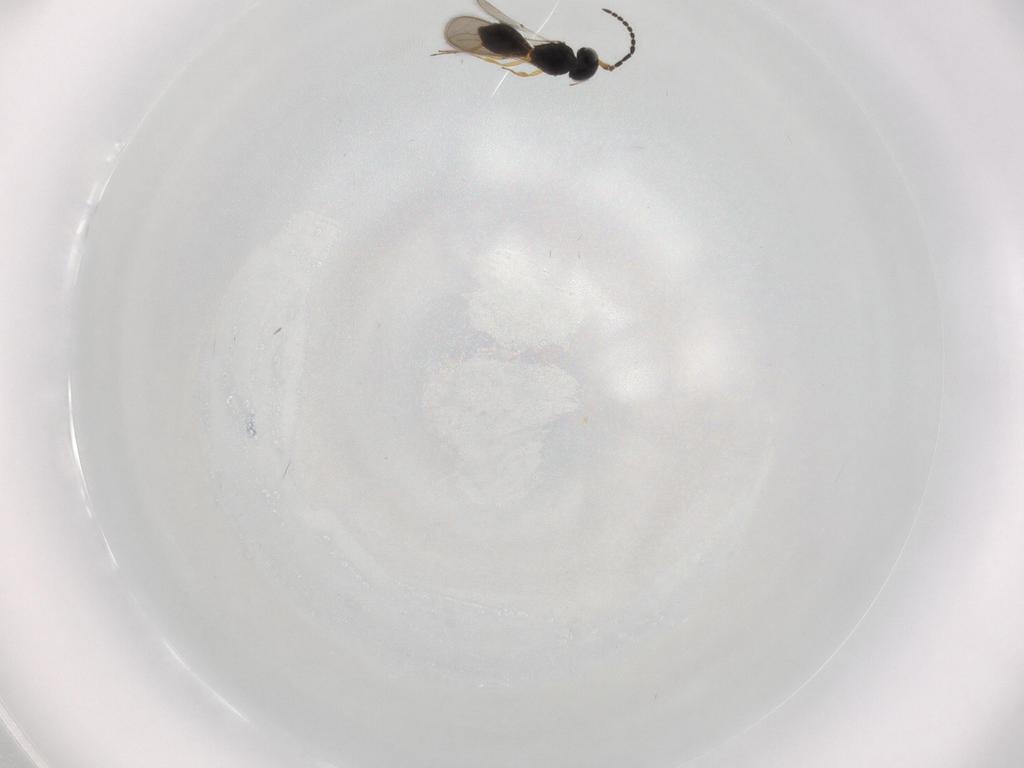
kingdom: Animalia
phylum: Arthropoda
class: Insecta
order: Hymenoptera
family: Scelionidae
